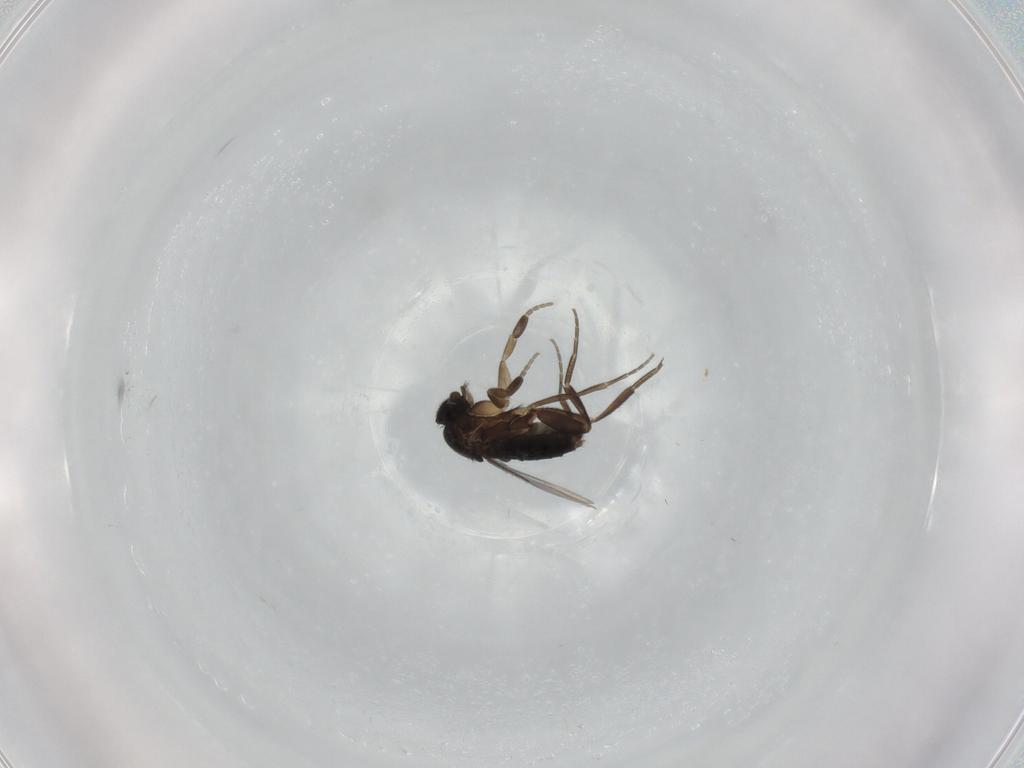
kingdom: Animalia
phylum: Arthropoda
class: Insecta
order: Diptera
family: Phoridae
